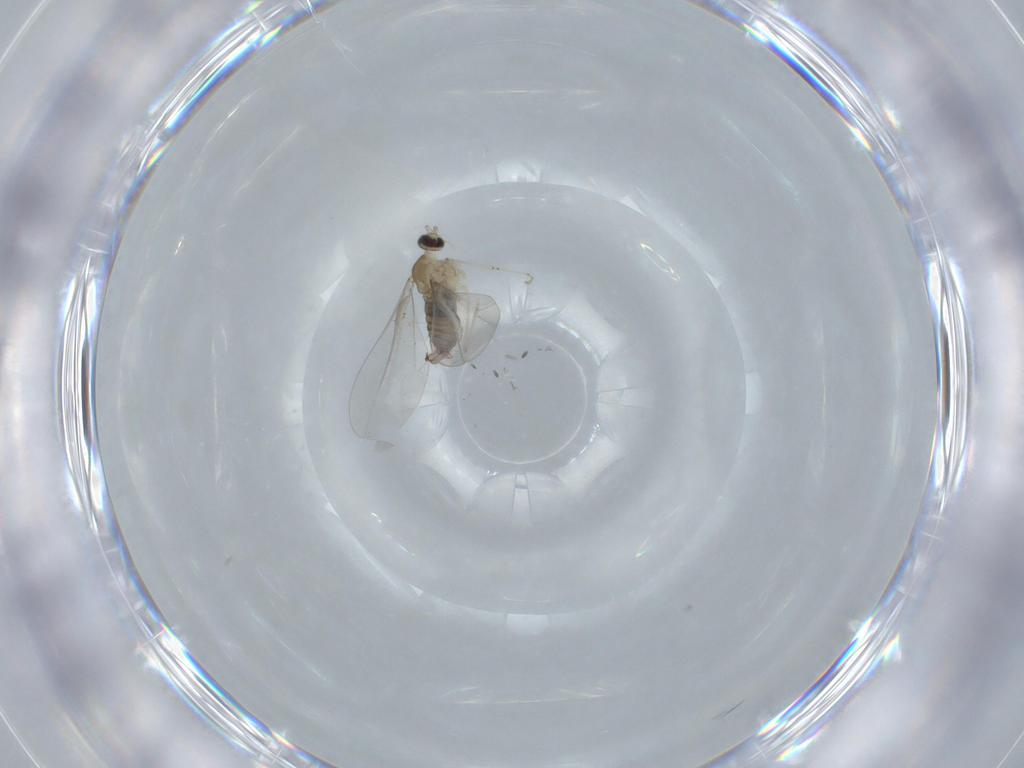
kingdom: Animalia
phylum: Arthropoda
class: Insecta
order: Diptera
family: Cecidomyiidae
